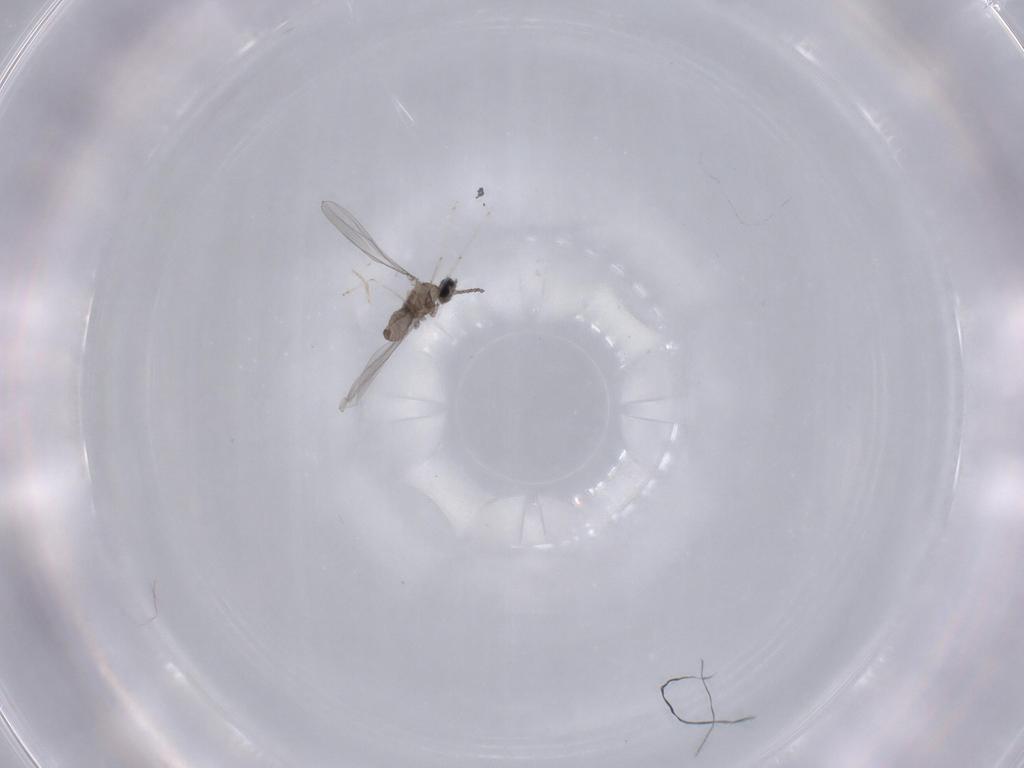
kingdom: Animalia
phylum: Arthropoda
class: Insecta
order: Diptera
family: Cecidomyiidae
